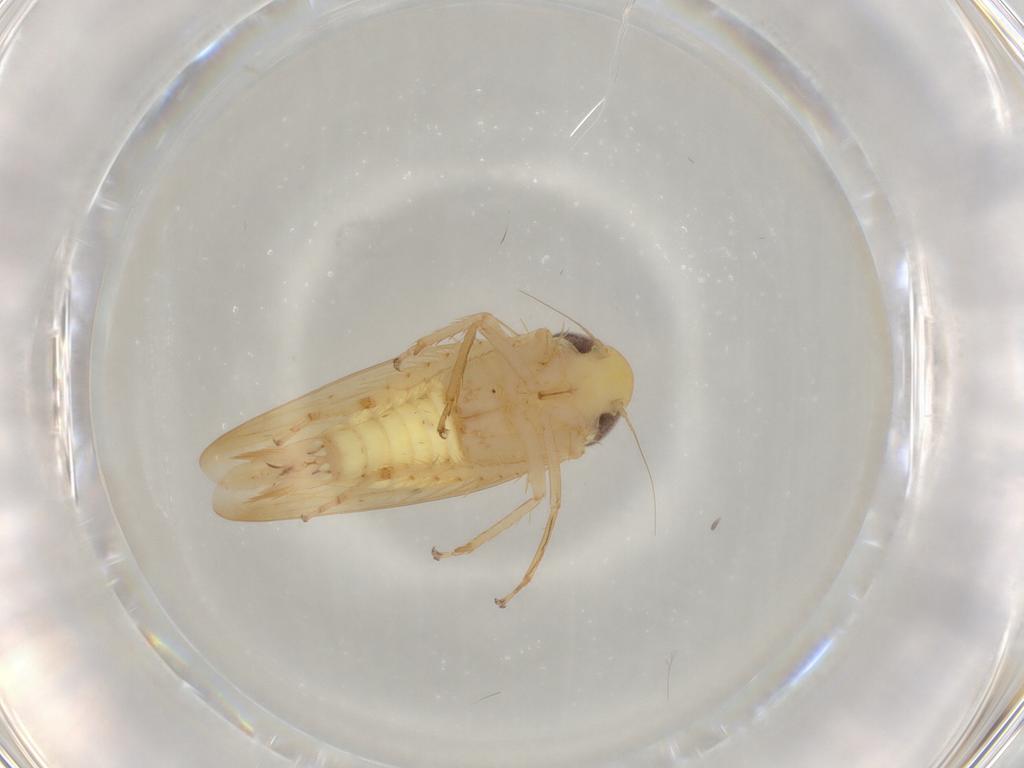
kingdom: Animalia
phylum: Arthropoda
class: Insecta
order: Hemiptera
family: Cicadellidae
